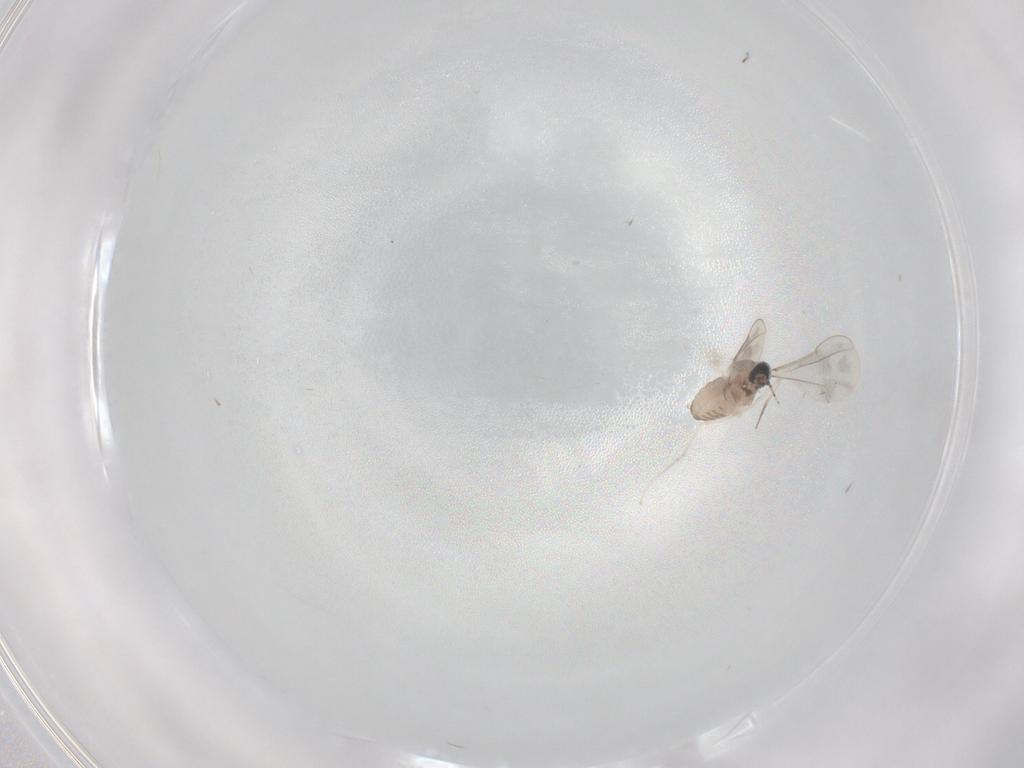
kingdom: Animalia
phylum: Arthropoda
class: Insecta
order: Diptera
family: Cecidomyiidae
